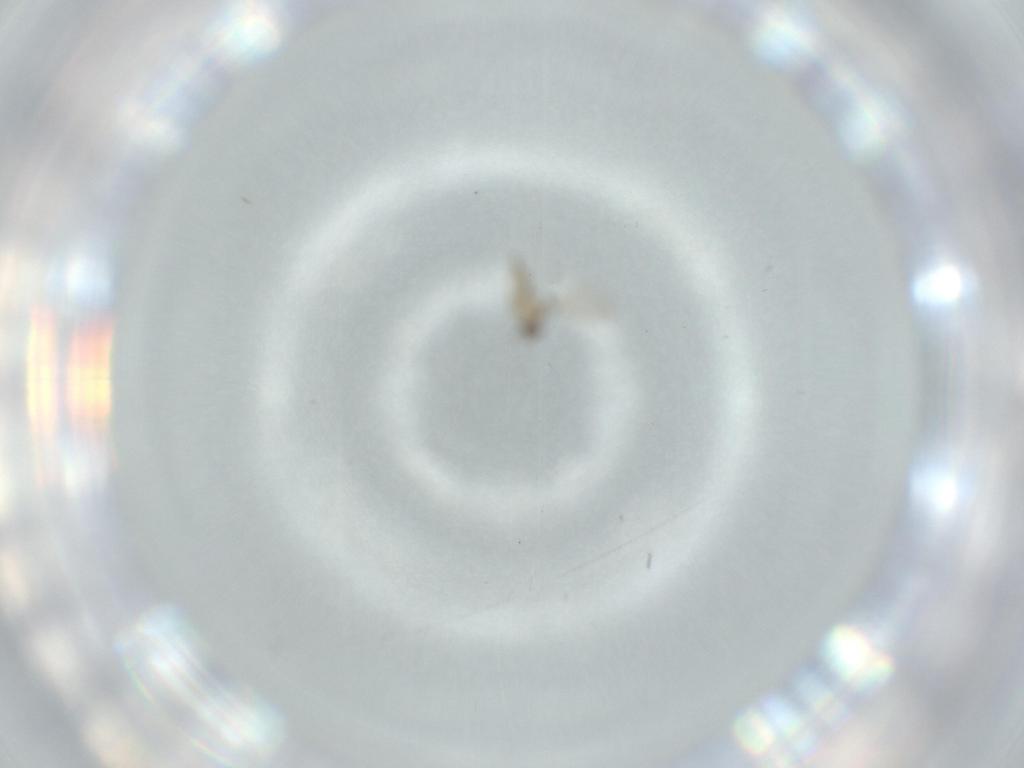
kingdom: Animalia
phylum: Arthropoda
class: Insecta
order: Diptera
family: Cecidomyiidae
